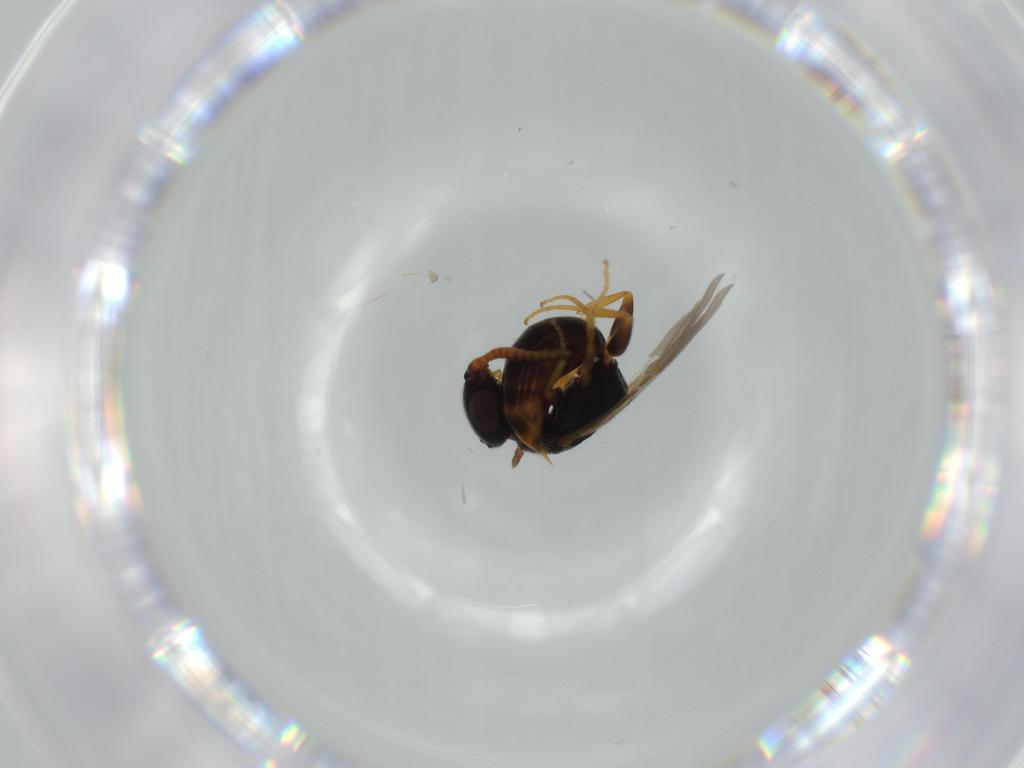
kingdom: Animalia
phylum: Arthropoda
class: Insecta
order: Hymenoptera
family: Bethylidae
